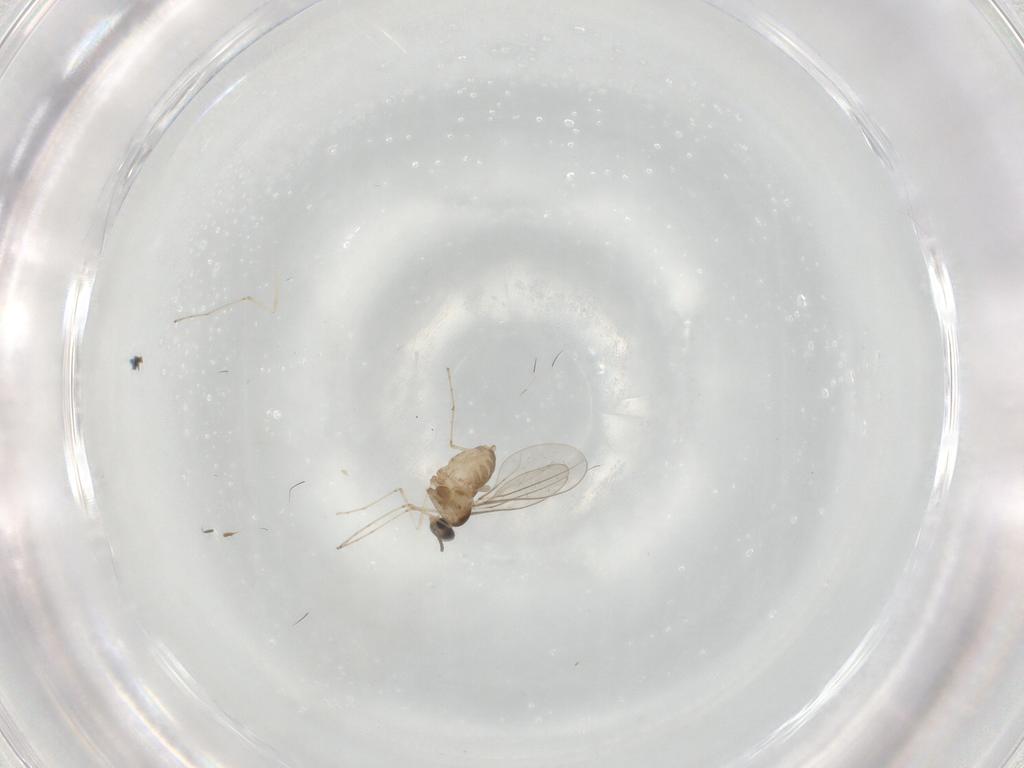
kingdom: Animalia
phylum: Arthropoda
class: Insecta
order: Diptera
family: Cecidomyiidae
